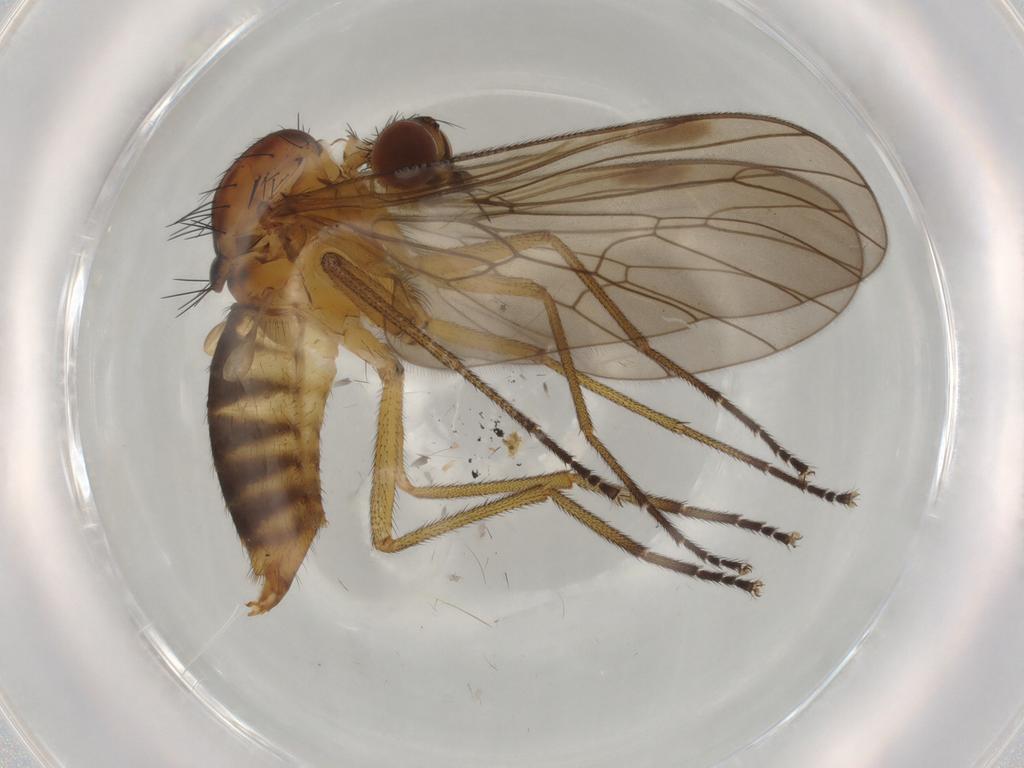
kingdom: Animalia
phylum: Arthropoda
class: Insecta
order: Diptera
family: Brachystomatidae
